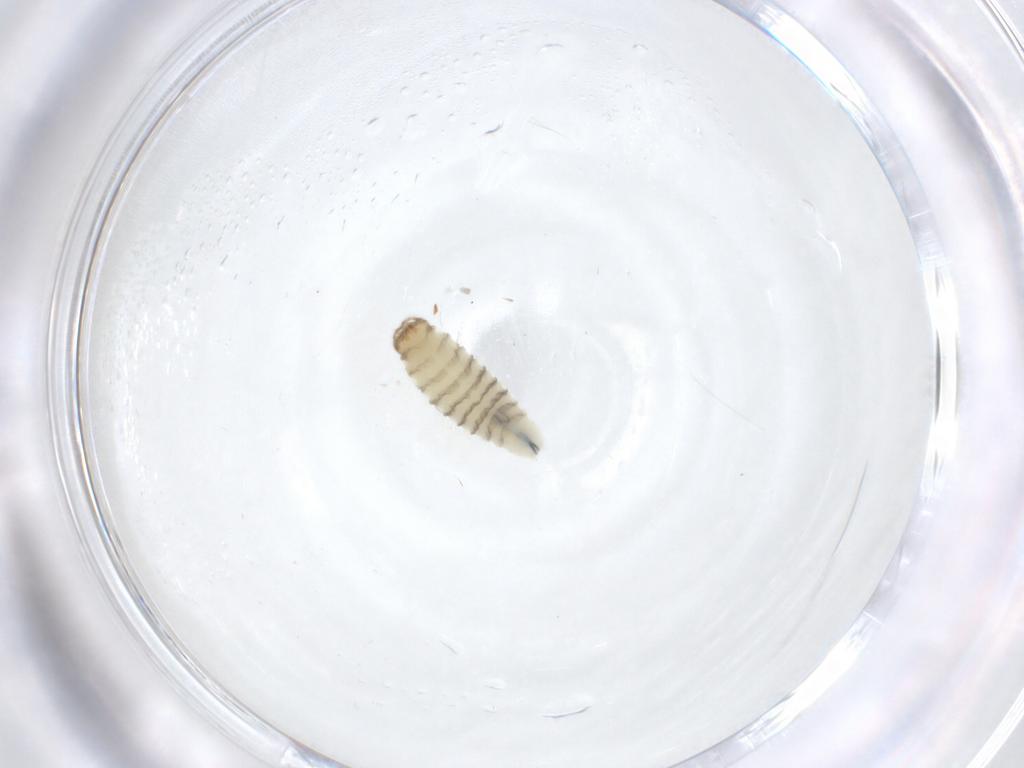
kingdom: Animalia
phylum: Arthropoda
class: Insecta
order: Diptera
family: Sarcophagidae
